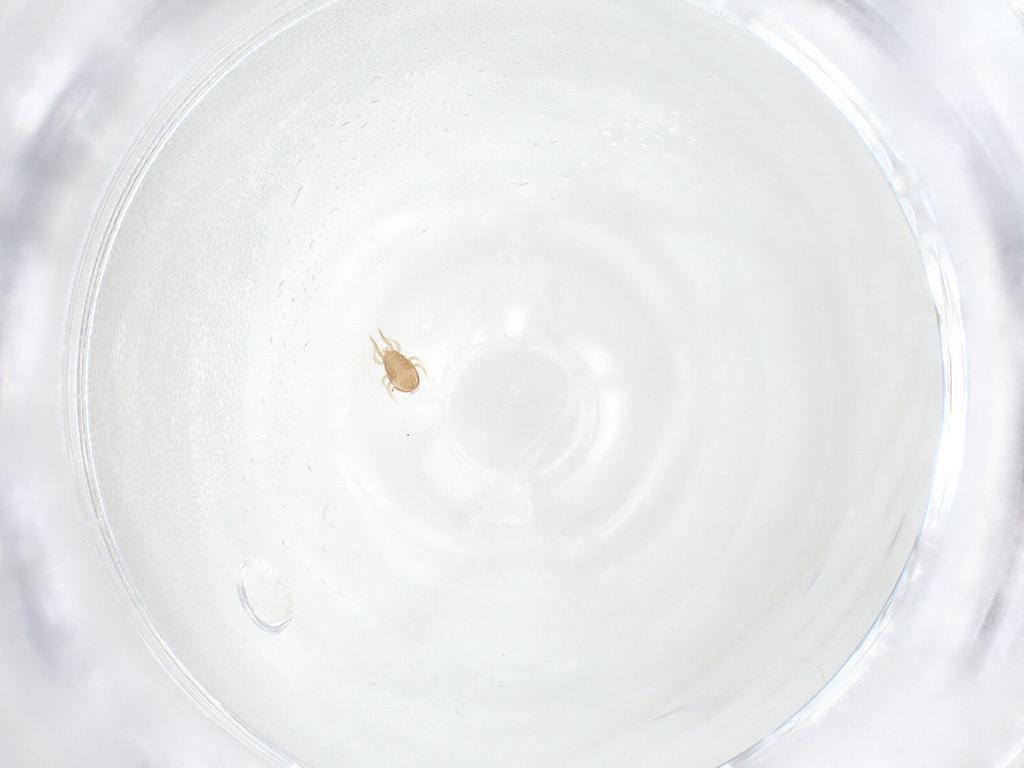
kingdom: Animalia
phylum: Arthropoda
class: Arachnida
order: Mesostigmata
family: Ameroseiidae
